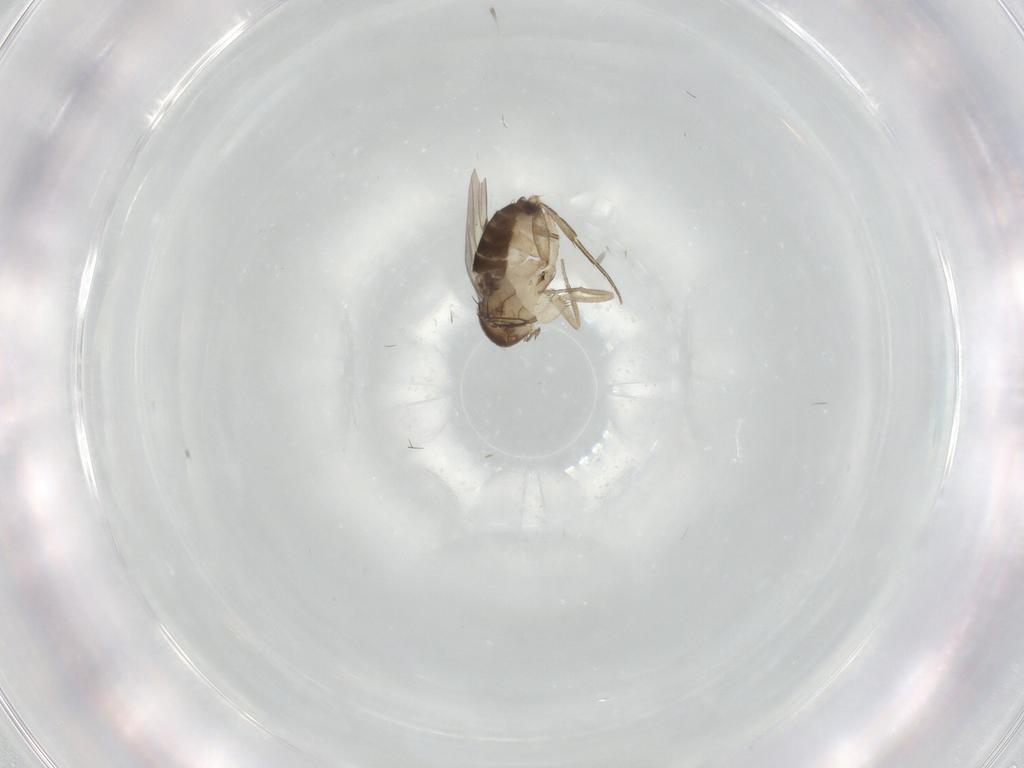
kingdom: Animalia
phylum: Arthropoda
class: Insecta
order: Diptera
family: Phoridae
